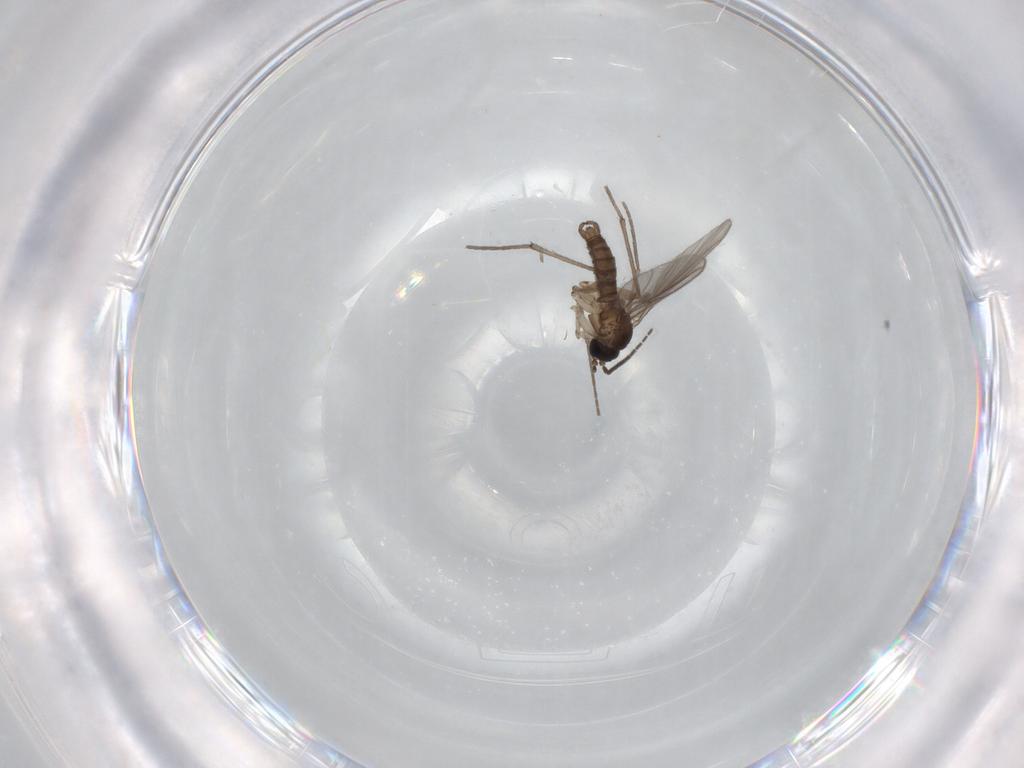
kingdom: Animalia
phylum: Arthropoda
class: Insecta
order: Diptera
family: Sciaridae
